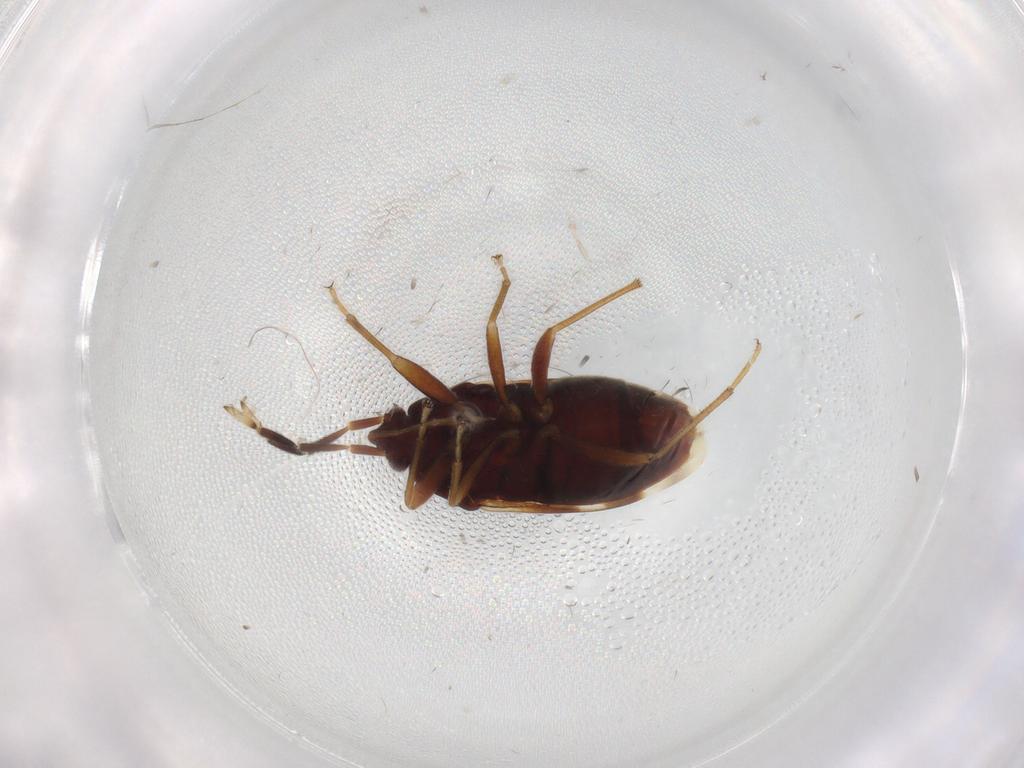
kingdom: Animalia
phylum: Arthropoda
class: Insecta
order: Hemiptera
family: Rhyparochromidae
